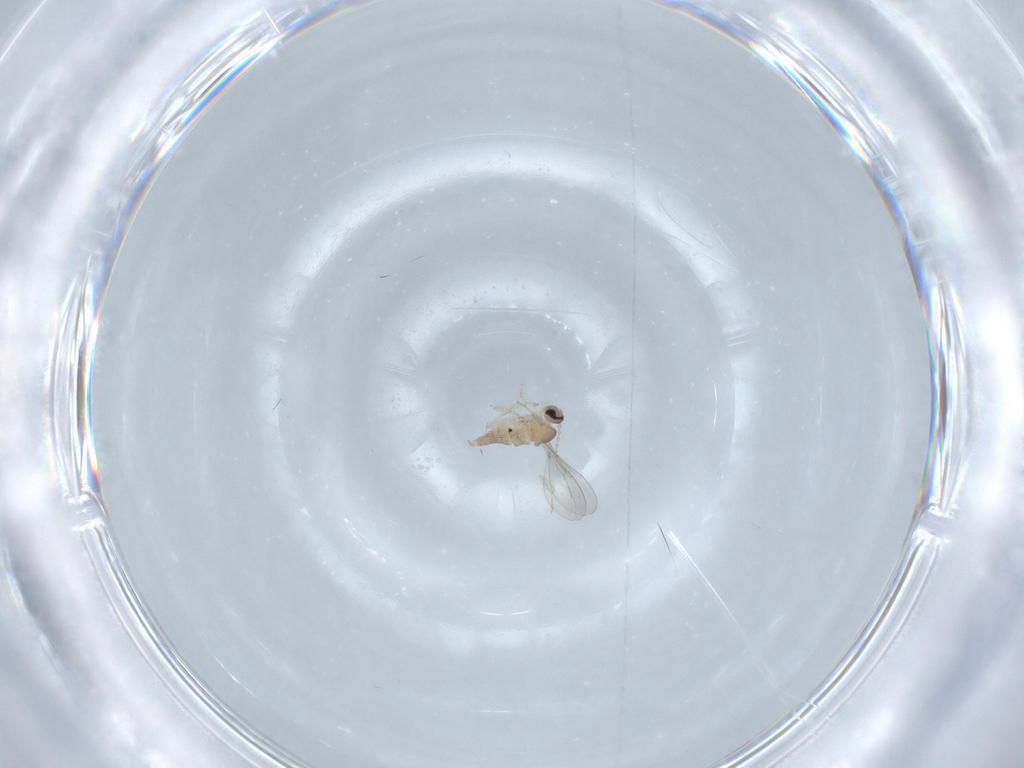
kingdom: Animalia
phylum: Arthropoda
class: Insecta
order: Diptera
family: Cecidomyiidae
